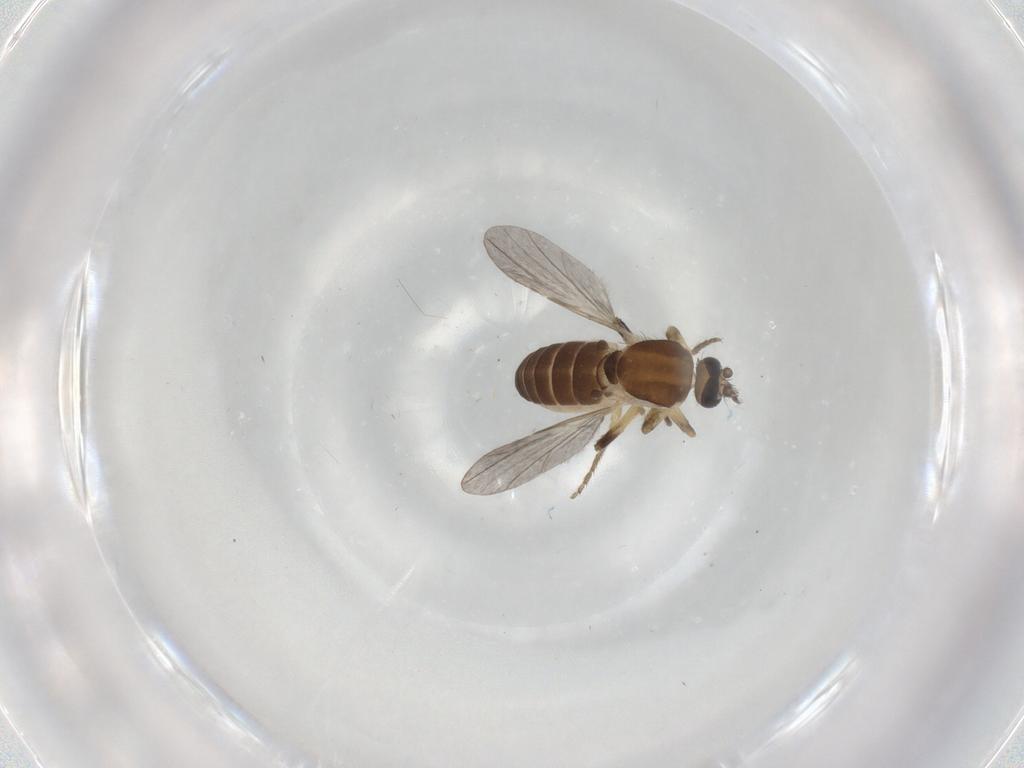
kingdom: Animalia
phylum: Arthropoda
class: Insecta
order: Diptera
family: Ceratopogonidae
